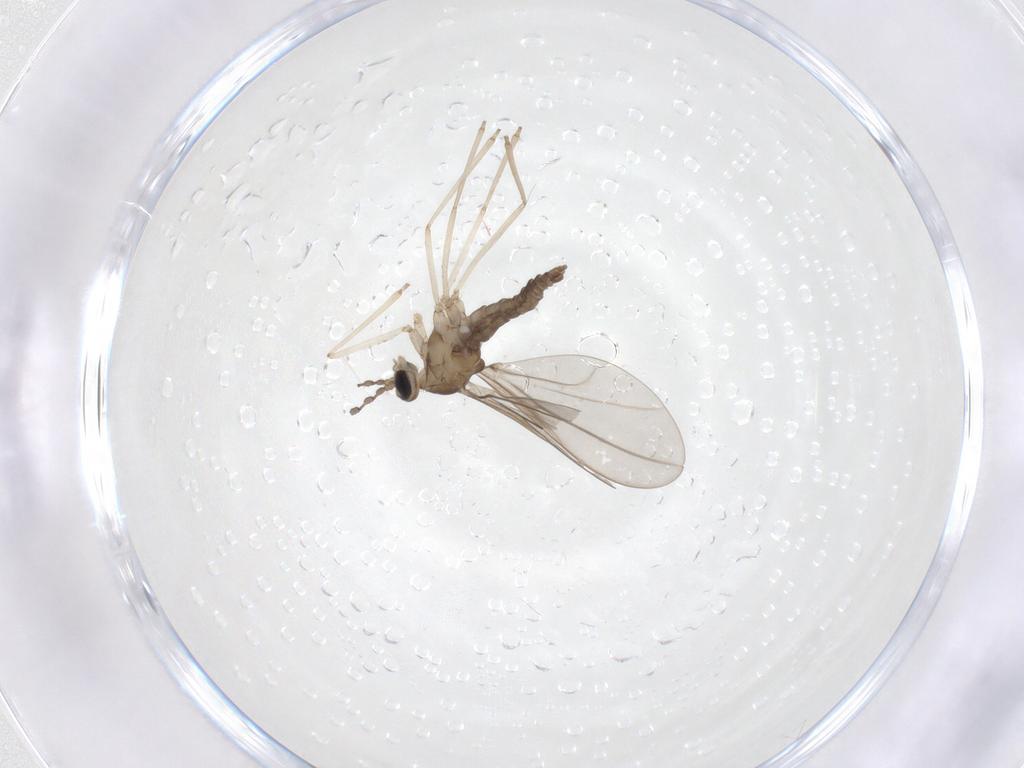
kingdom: Animalia
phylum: Arthropoda
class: Insecta
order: Diptera
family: Cecidomyiidae
